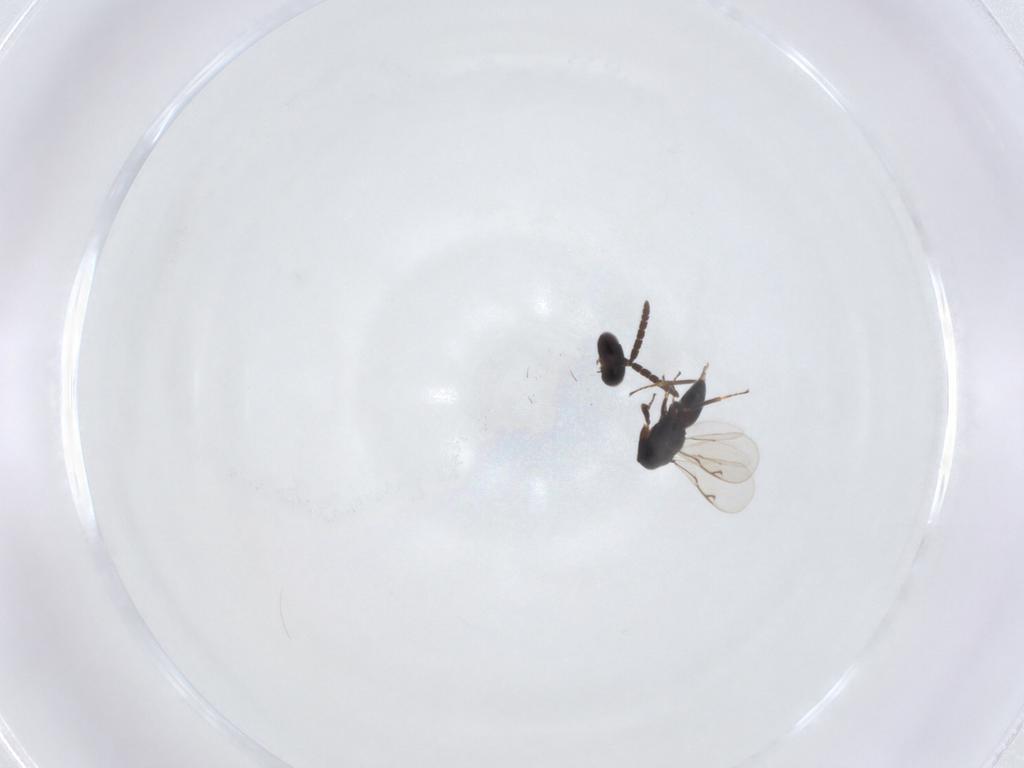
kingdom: Animalia
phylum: Arthropoda
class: Insecta
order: Hymenoptera
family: Eunotidae
